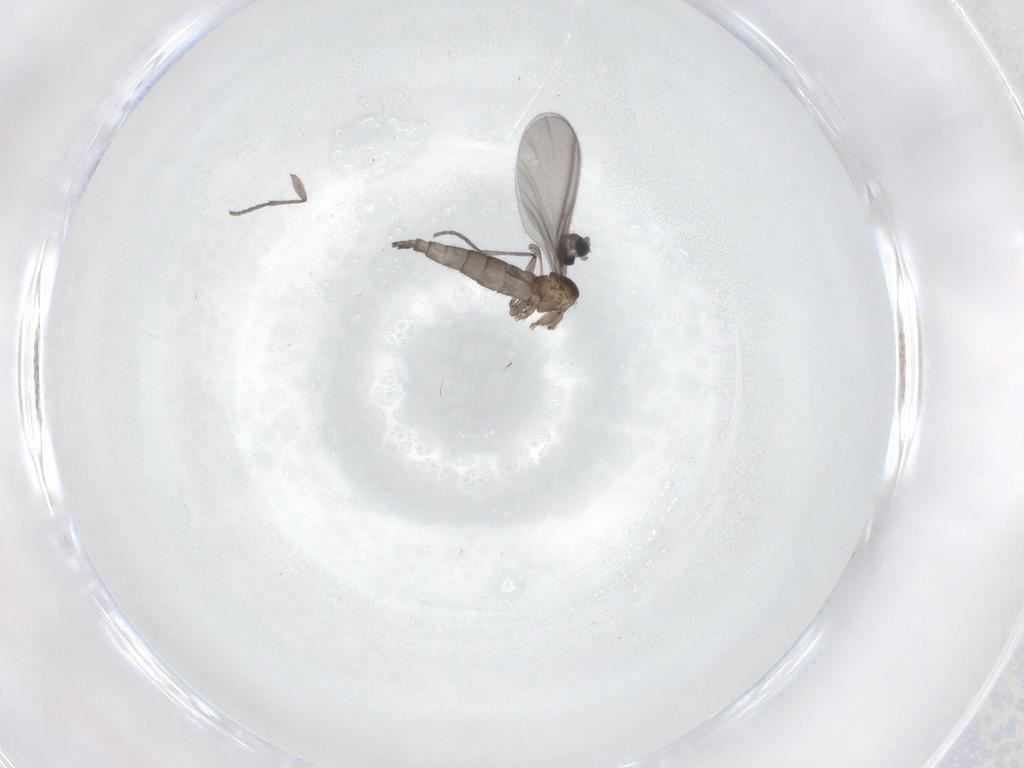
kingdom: Animalia
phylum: Arthropoda
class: Insecta
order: Diptera
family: Sciaridae
